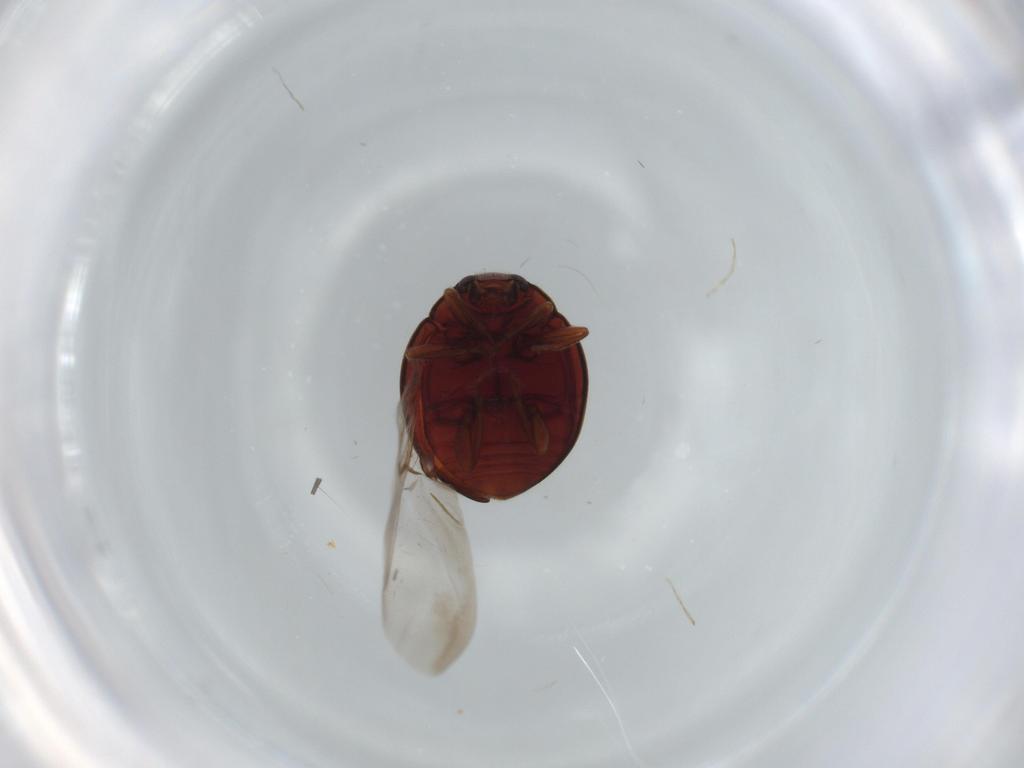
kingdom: Animalia
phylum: Arthropoda
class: Insecta
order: Coleoptera
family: Coccinellidae
